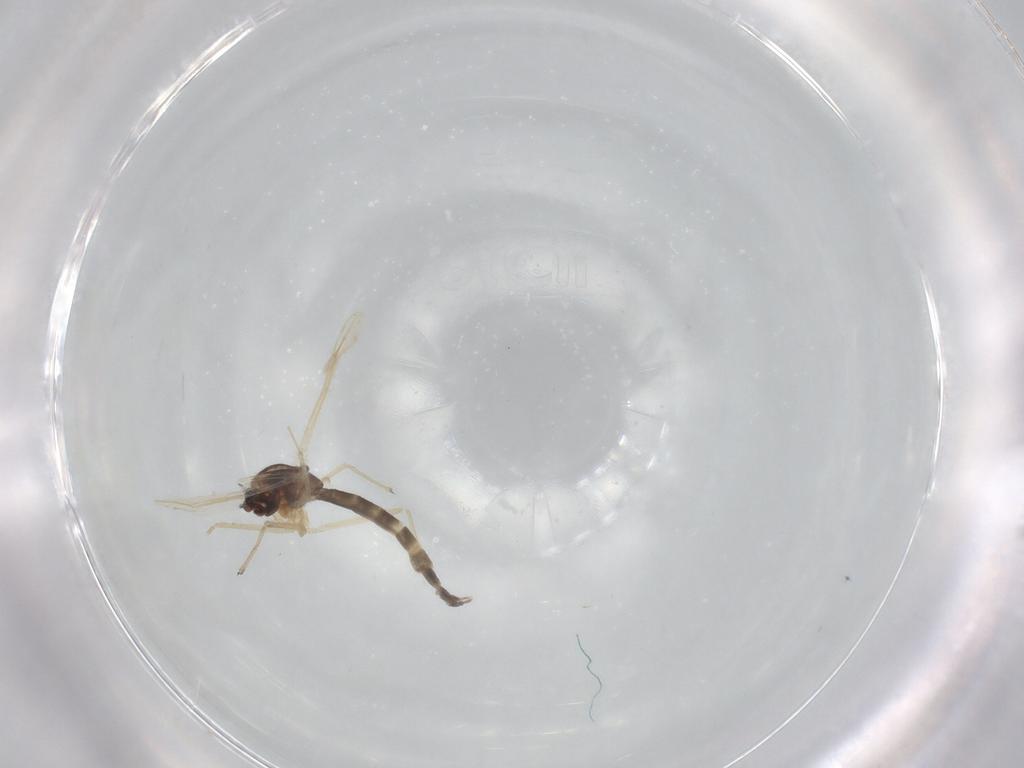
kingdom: Animalia
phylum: Arthropoda
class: Insecta
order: Diptera
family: Chironomidae
